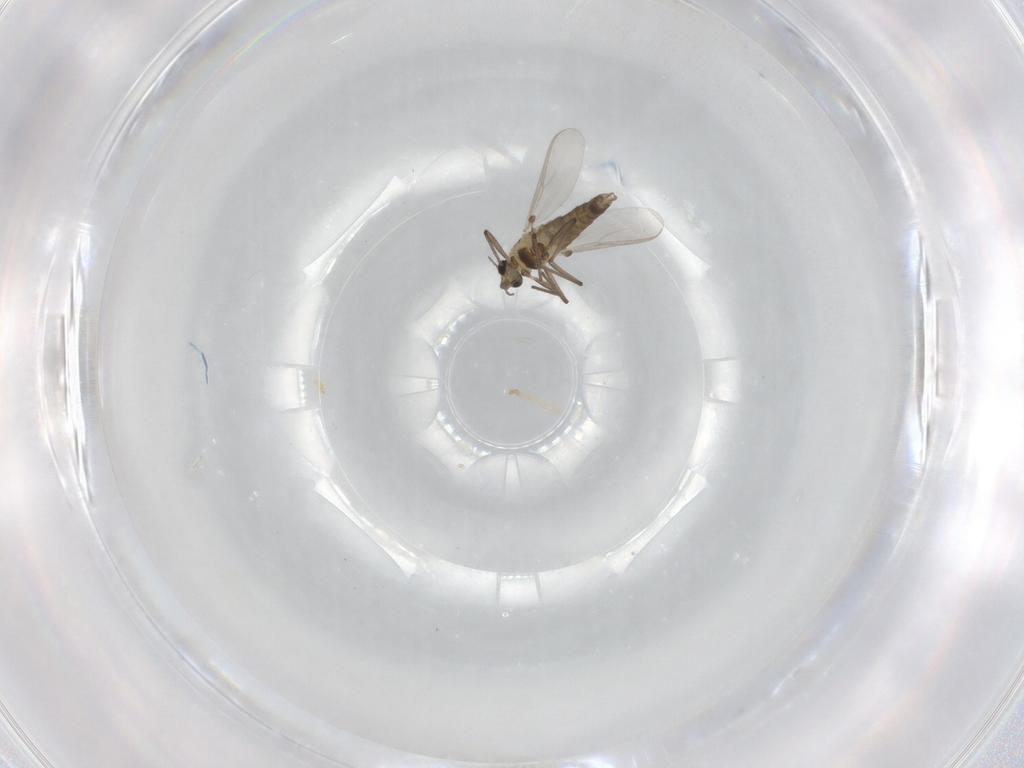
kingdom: Animalia
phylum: Arthropoda
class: Insecta
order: Diptera
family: Chironomidae
